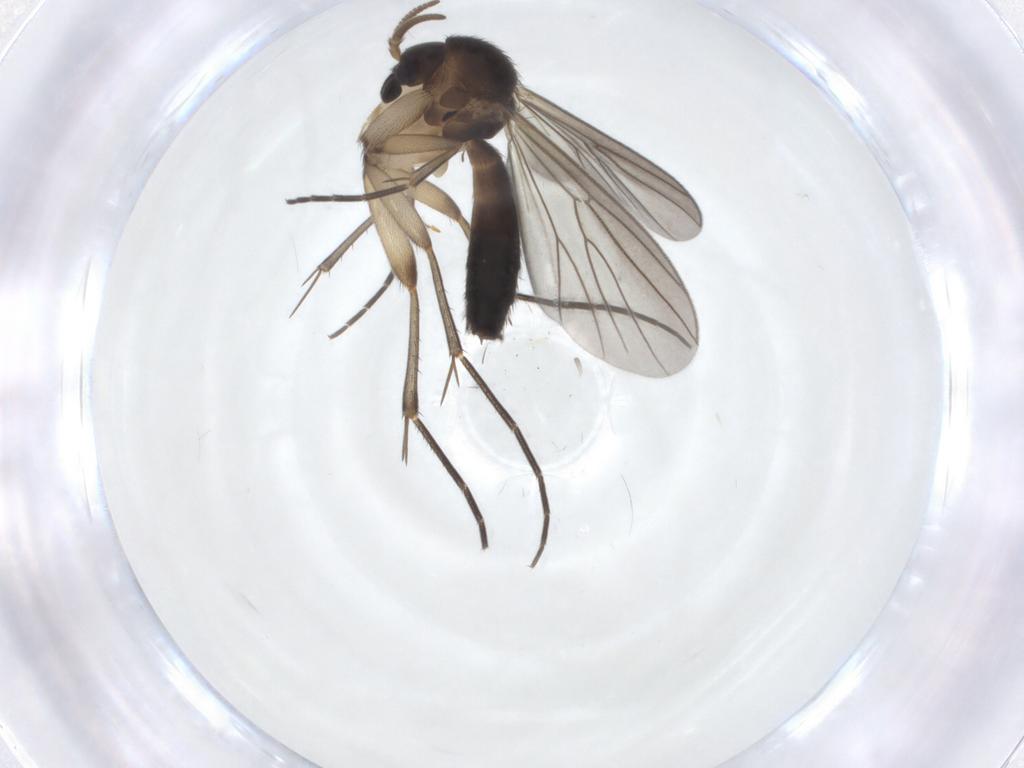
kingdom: Animalia
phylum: Arthropoda
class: Insecta
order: Diptera
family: Mycetophilidae
